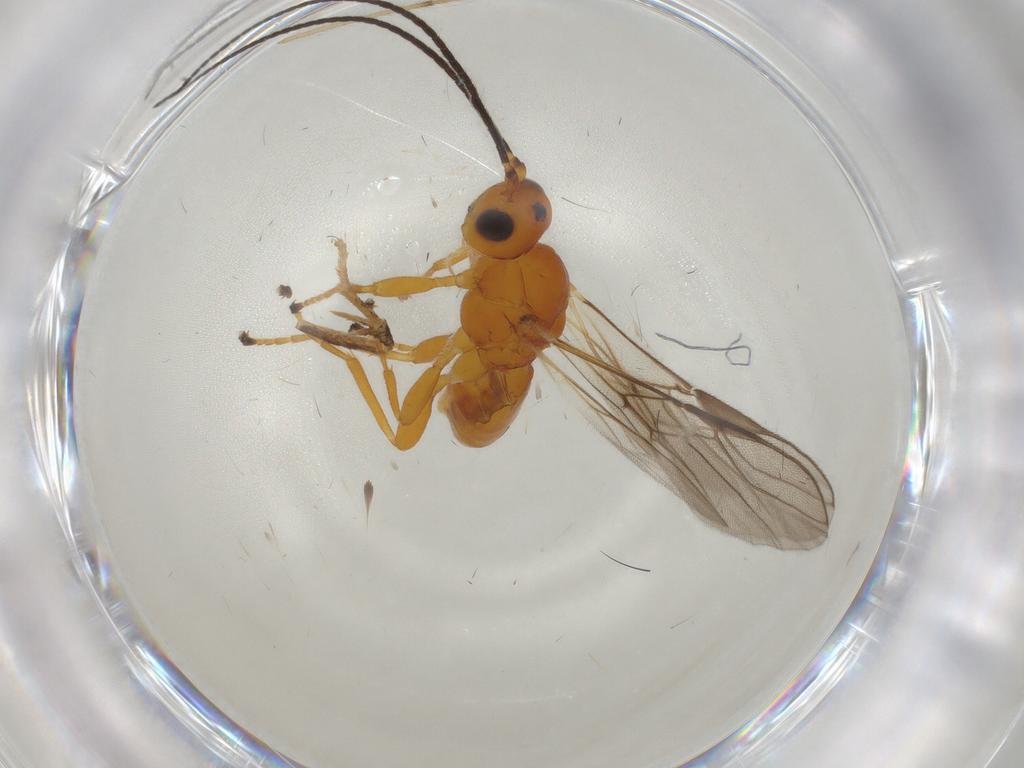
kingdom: Animalia
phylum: Arthropoda
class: Insecta
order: Hymenoptera
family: Braconidae
